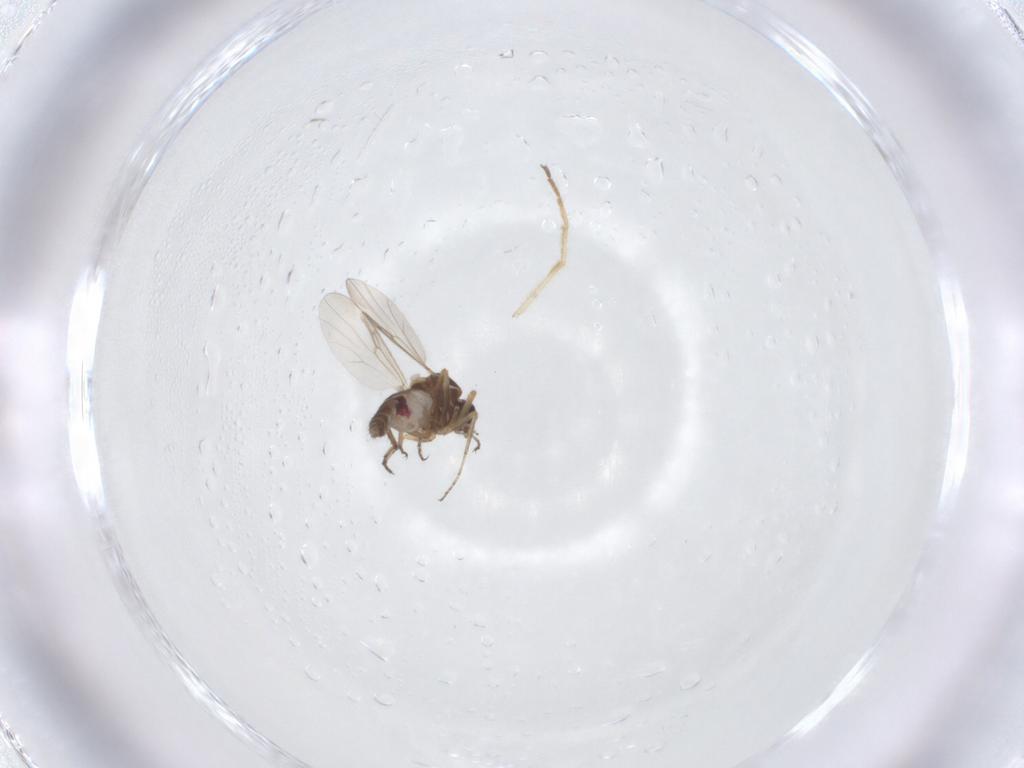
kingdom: Animalia
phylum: Arthropoda
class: Insecta
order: Diptera
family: Ceratopogonidae
